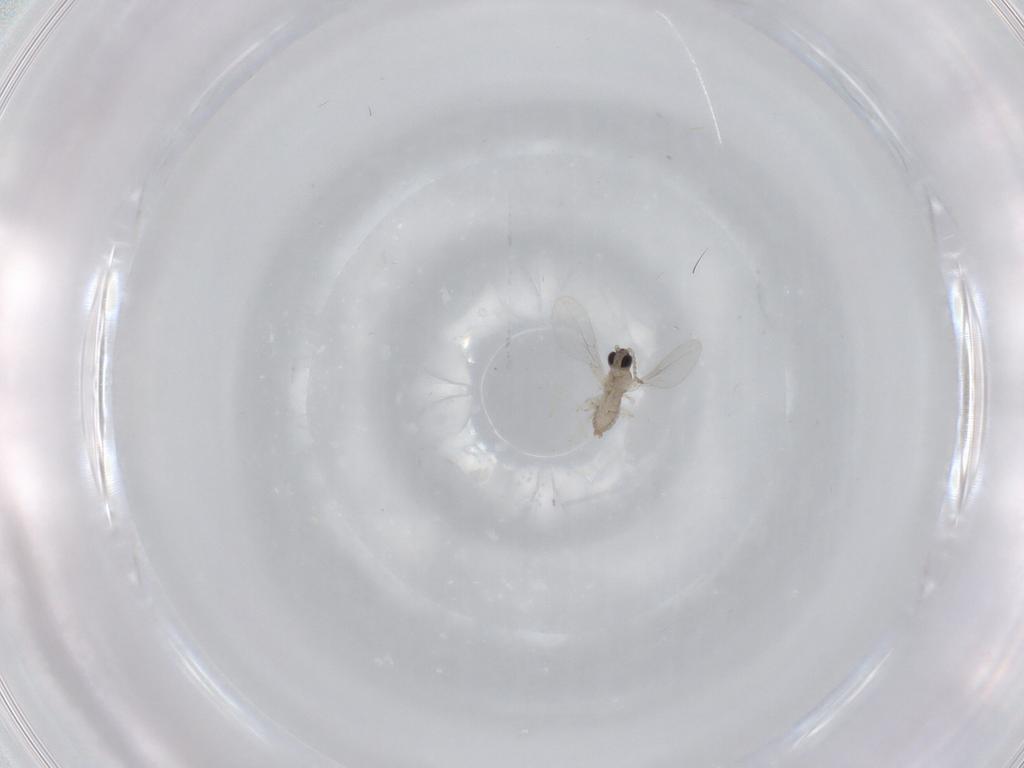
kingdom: Animalia
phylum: Arthropoda
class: Insecta
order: Diptera
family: Cecidomyiidae
